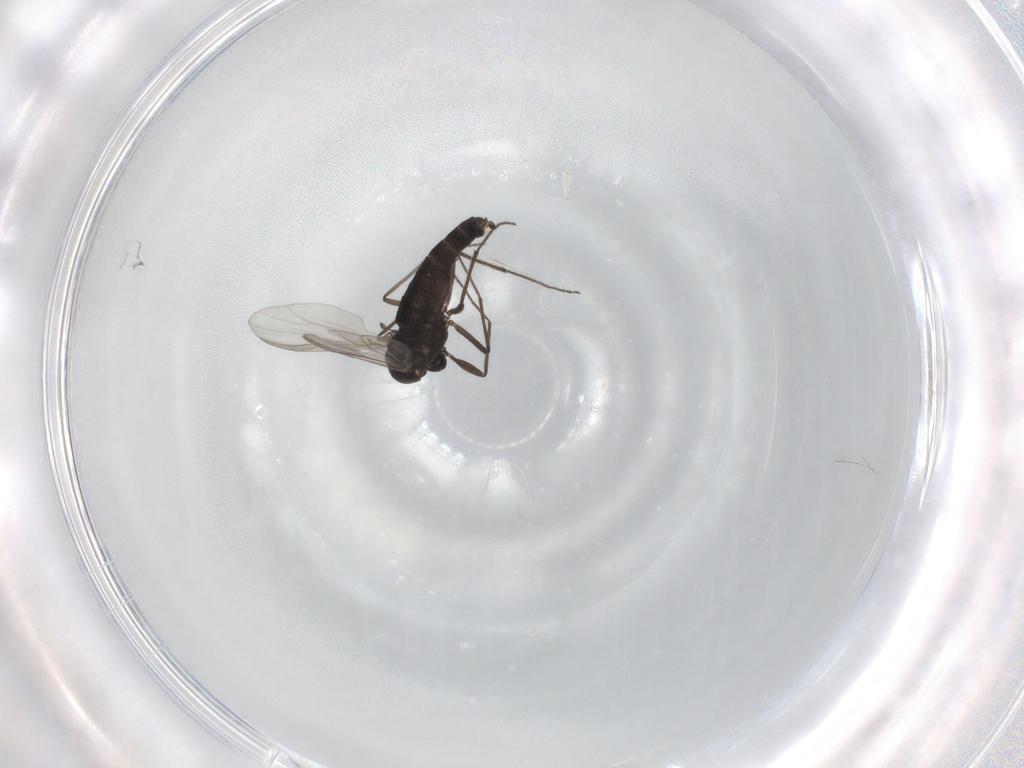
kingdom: Animalia
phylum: Arthropoda
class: Insecta
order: Diptera
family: Chironomidae
